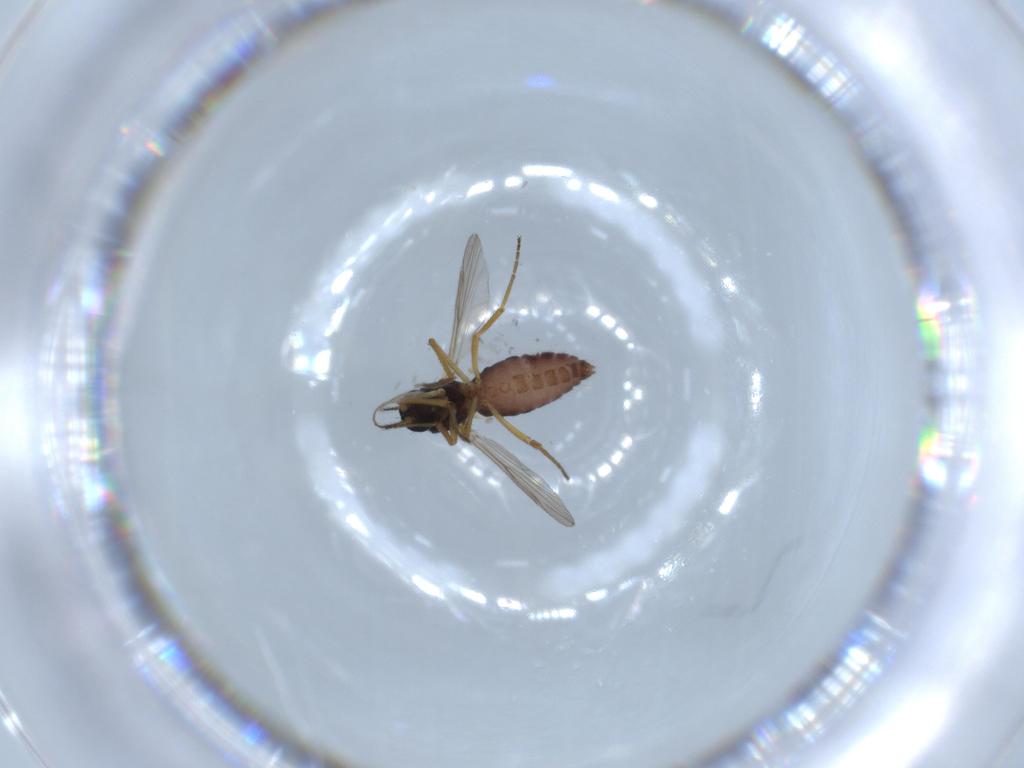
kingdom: Animalia
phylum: Arthropoda
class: Insecta
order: Diptera
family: Ceratopogonidae
